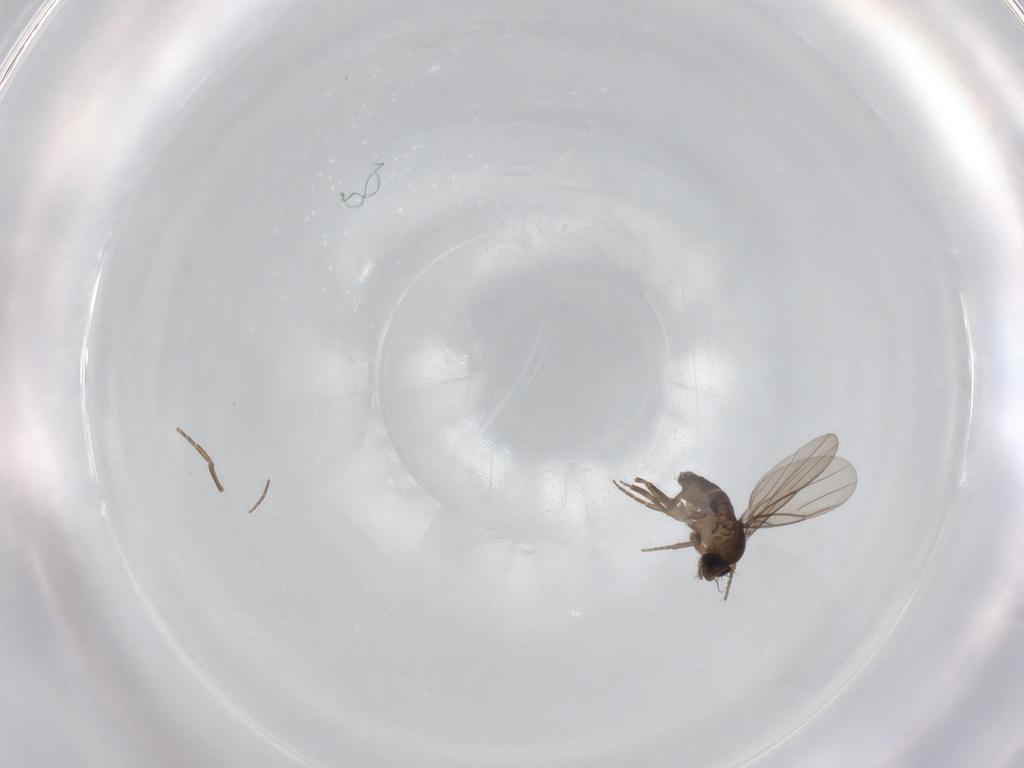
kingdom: Animalia
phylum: Arthropoda
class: Insecta
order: Diptera
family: Phoridae
